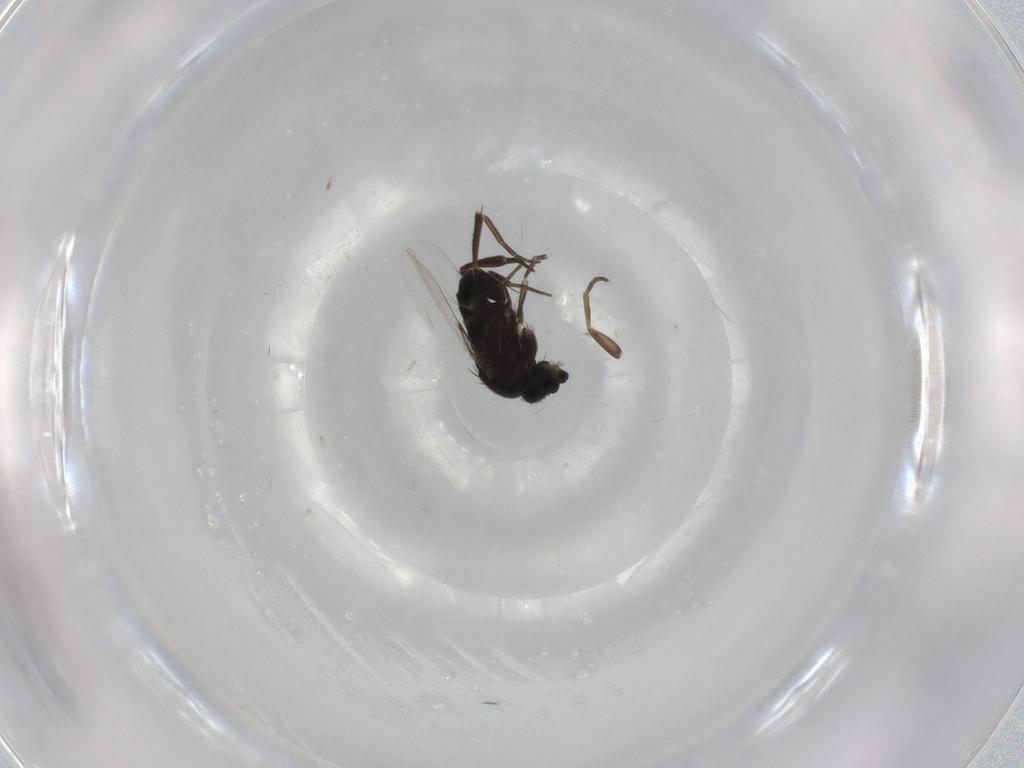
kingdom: Animalia
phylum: Arthropoda
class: Insecta
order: Diptera
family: Phoridae
